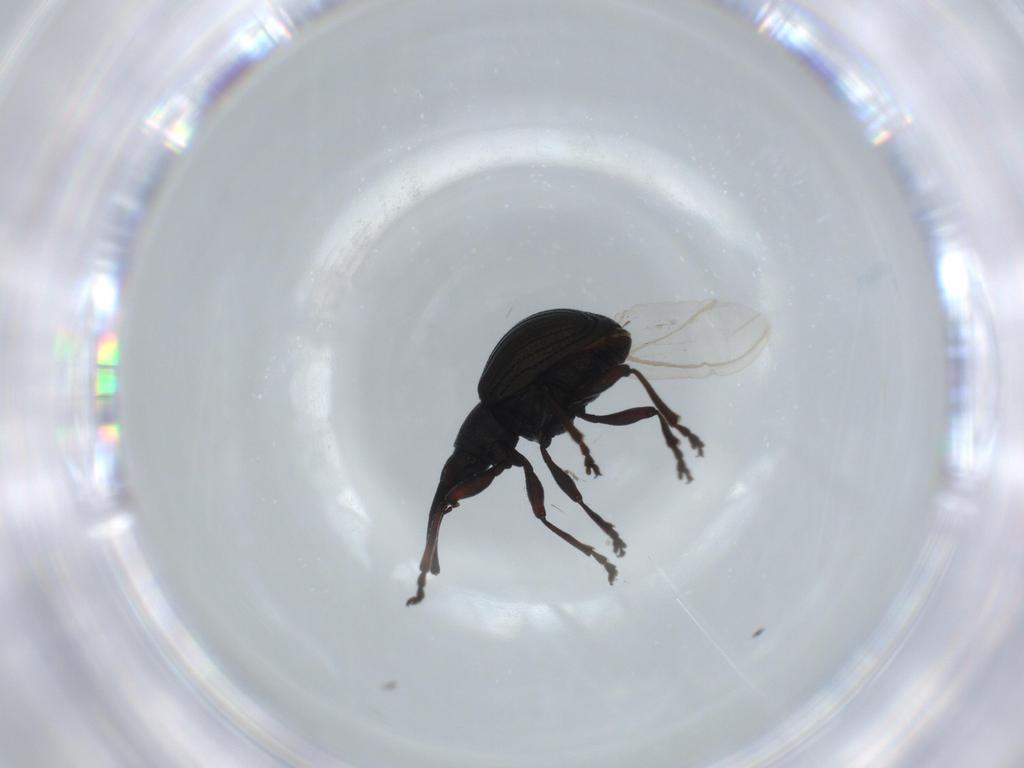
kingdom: Animalia
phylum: Arthropoda
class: Insecta
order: Coleoptera
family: Brentidae
